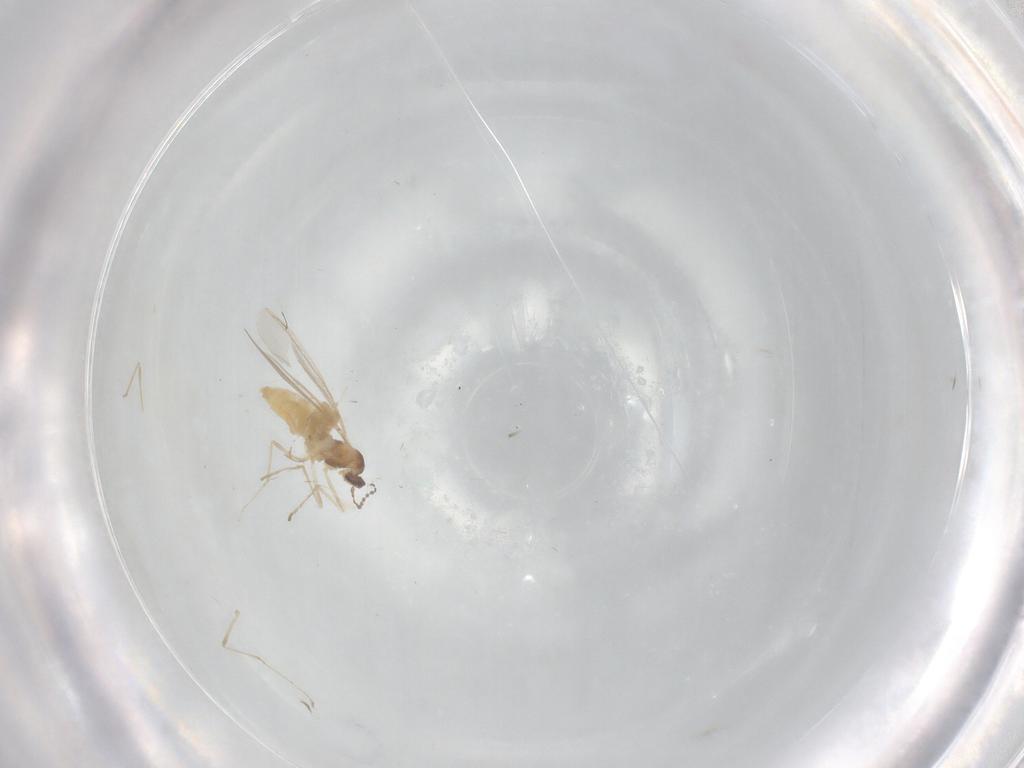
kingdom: Animalia
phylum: Arthropoda
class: Insecta
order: Diptera
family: Cecidomyiidae
